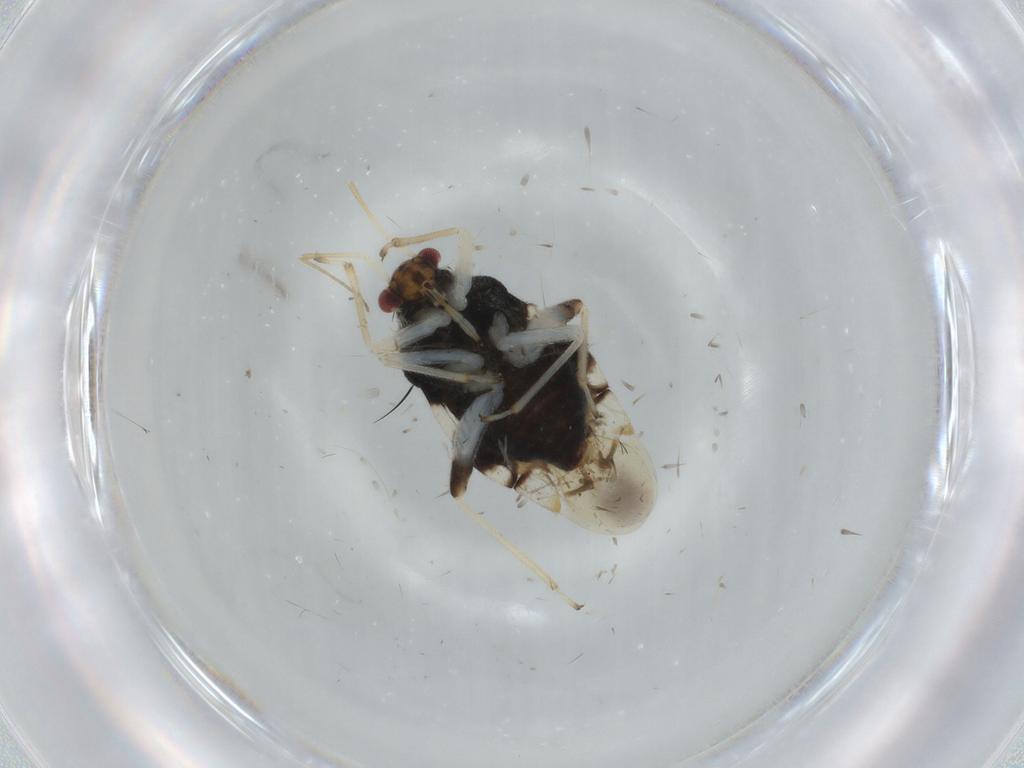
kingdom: Animalia
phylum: Arthropoda
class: Insecta
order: Hemiptera
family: Miridae
